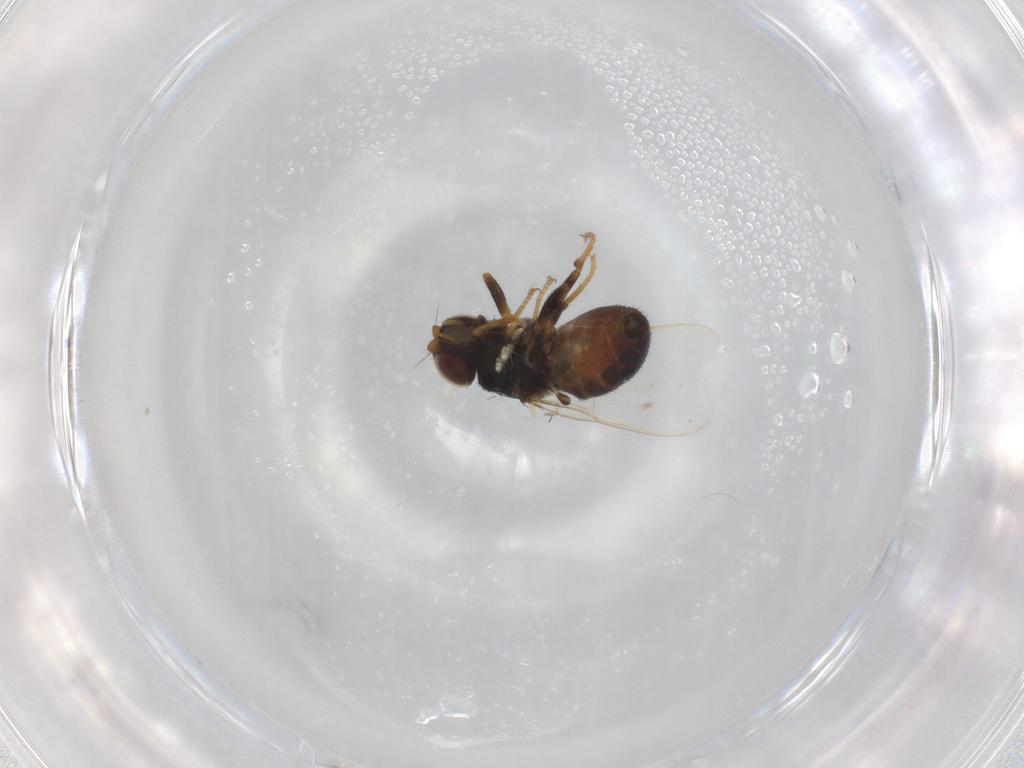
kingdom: Animalia
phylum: Arthropoda
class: Insecta
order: Diptera
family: Chloropidae
